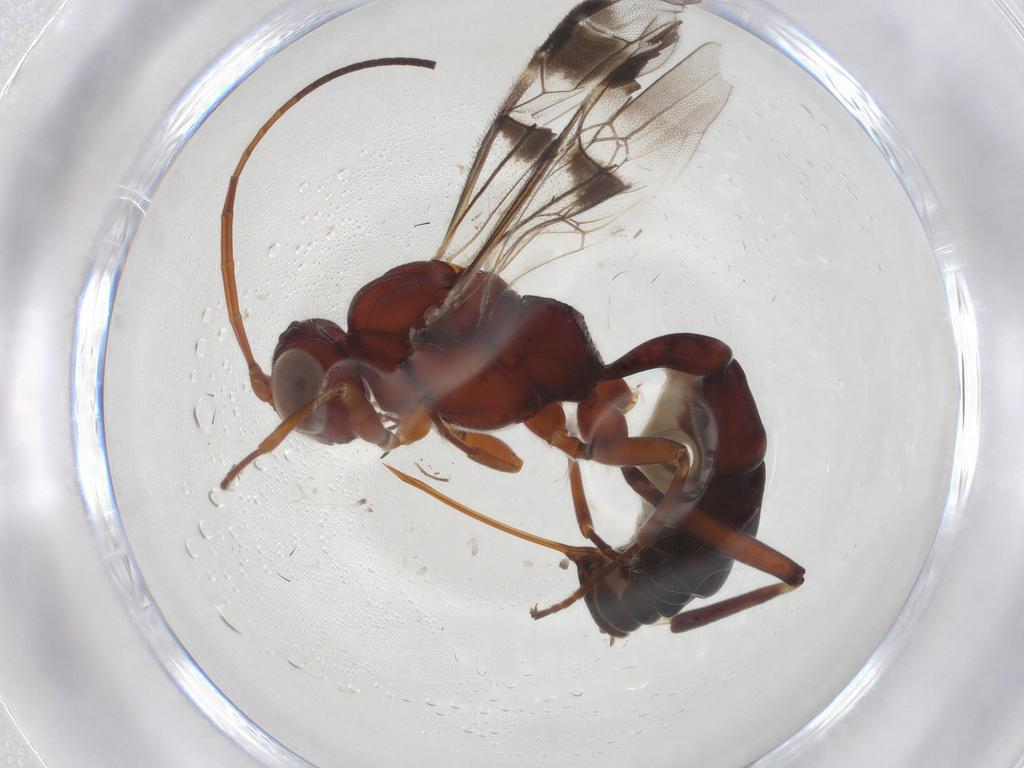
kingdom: Animalia
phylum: Arthropoda
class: Insecta
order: Hymenoptera
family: Ichneumonidae
